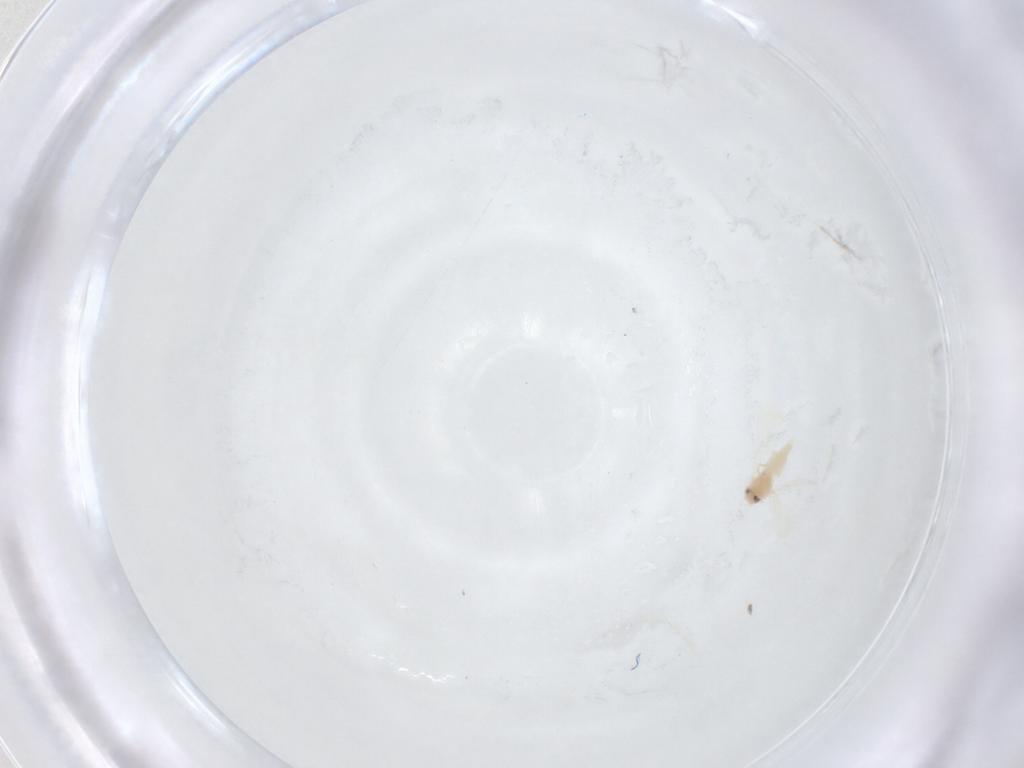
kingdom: Animalia
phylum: Arthropoda
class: Insecta
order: Hemiptera
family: Aleyrodidae
